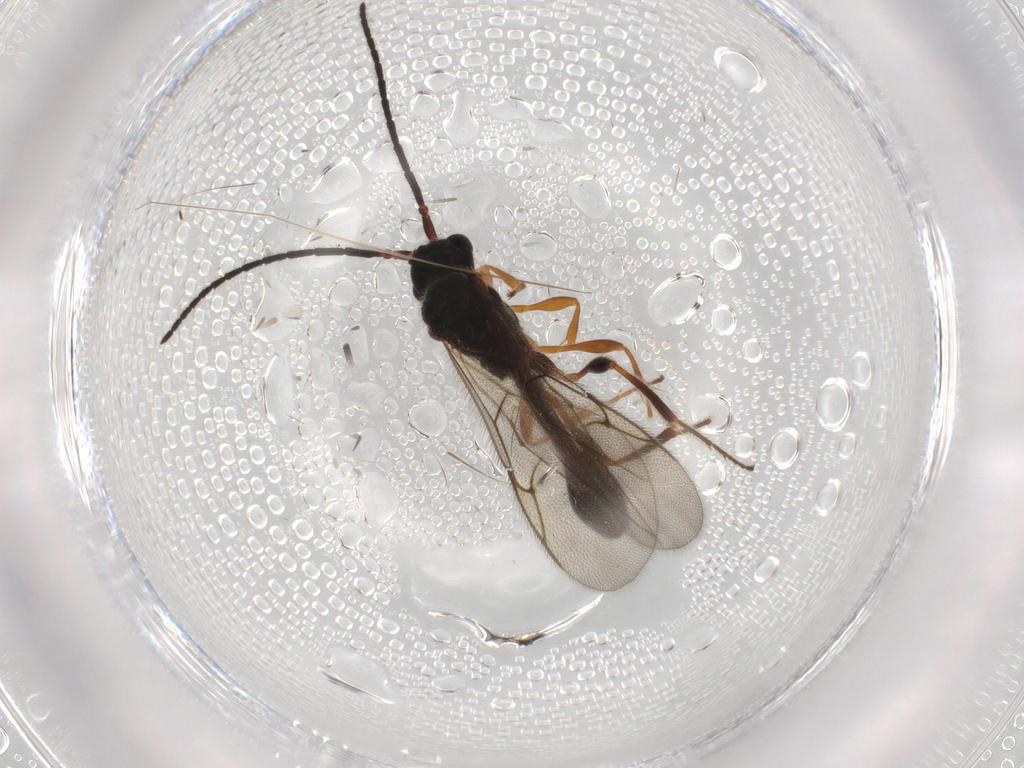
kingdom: Animalia
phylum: Arthropoda
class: Insecta
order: Hymenoptera
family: Diapriidae
